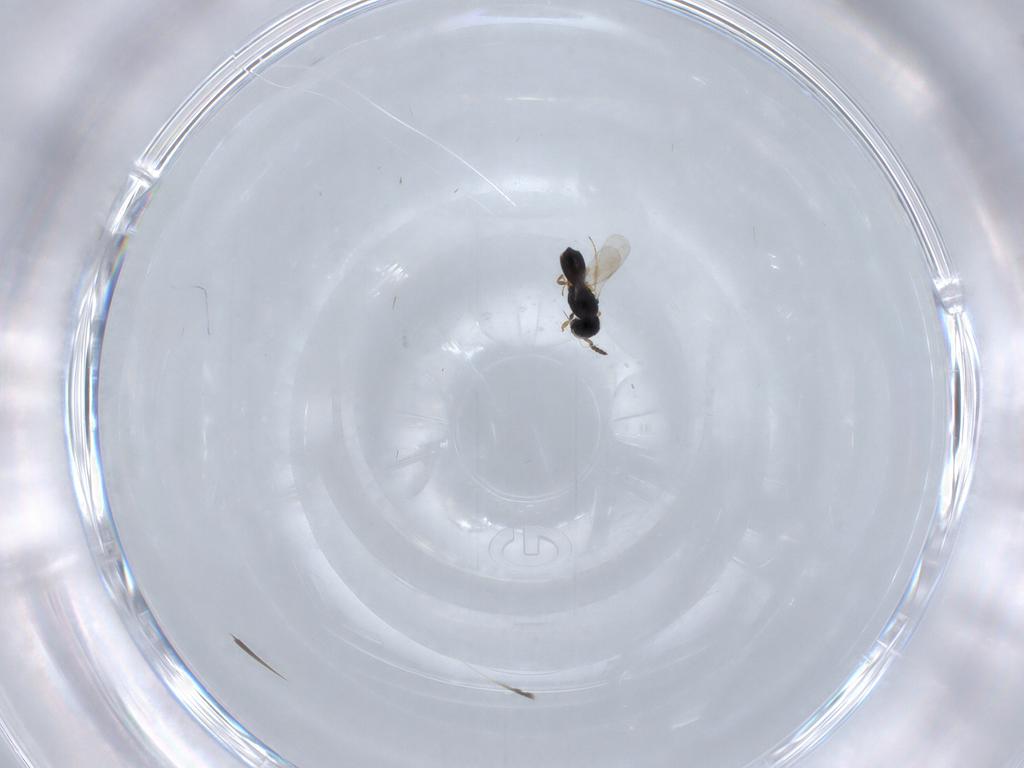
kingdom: Animalia
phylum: Arthropoda
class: Insecta
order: Hymenoptera
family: Scelionidae
